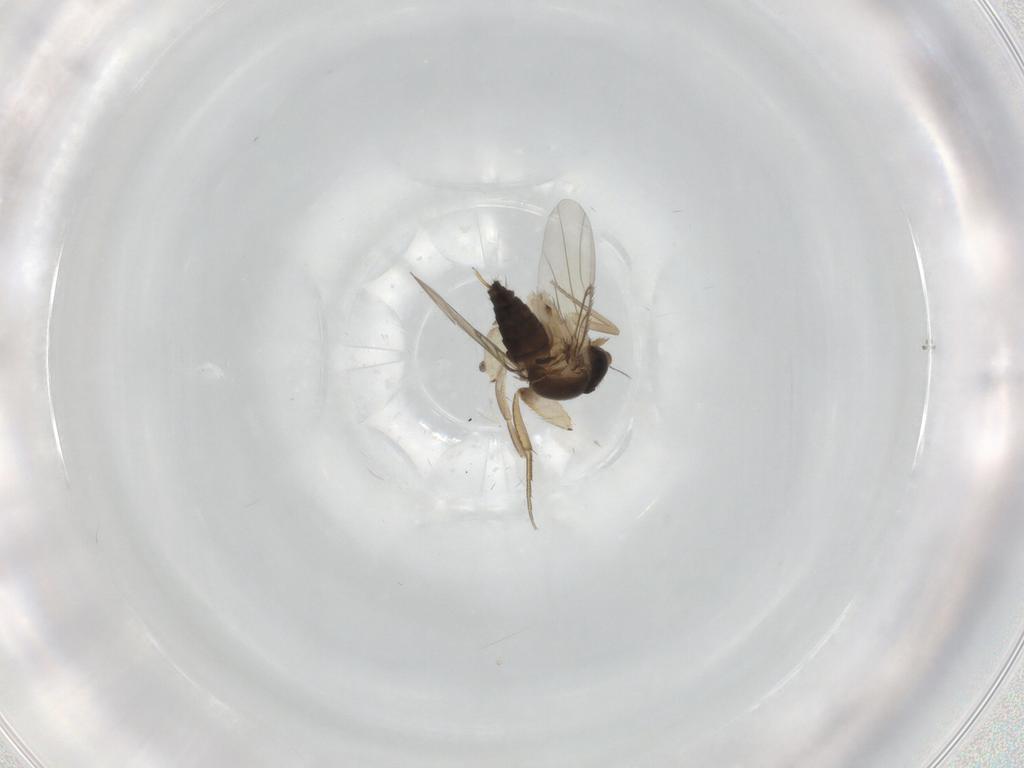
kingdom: Animalia
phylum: Arthropoda
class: Insecta
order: Diptera
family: Phoridae
